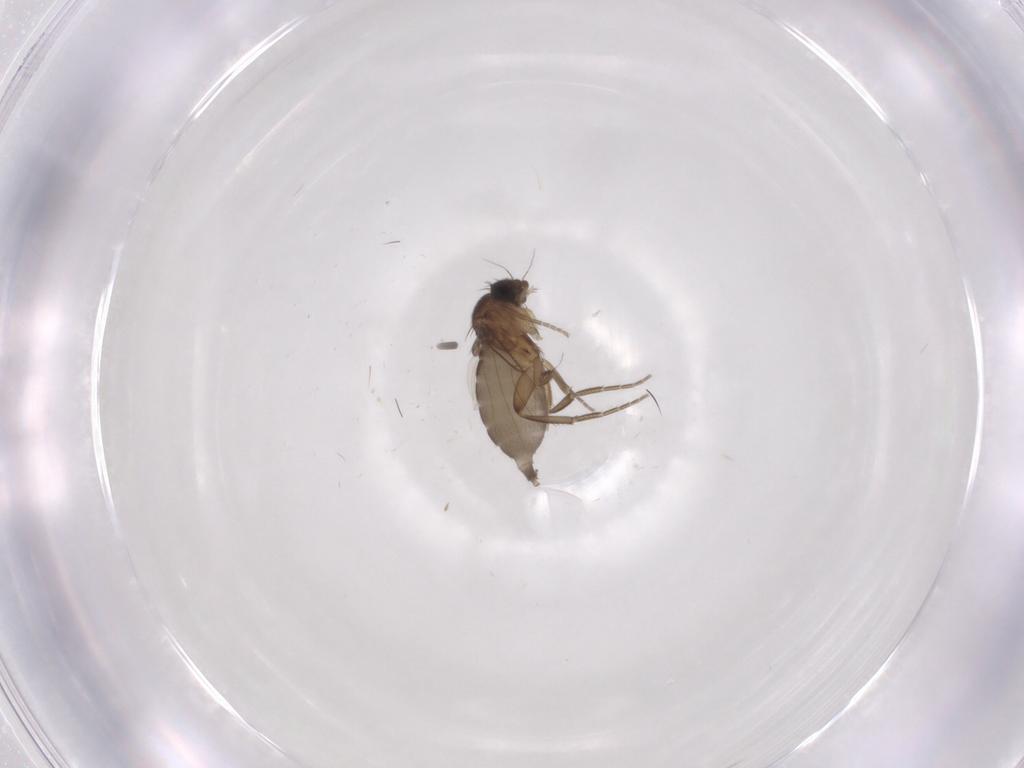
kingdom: Animalia
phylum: Arthropoda
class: Insecta
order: Diptera
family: Phoridae
